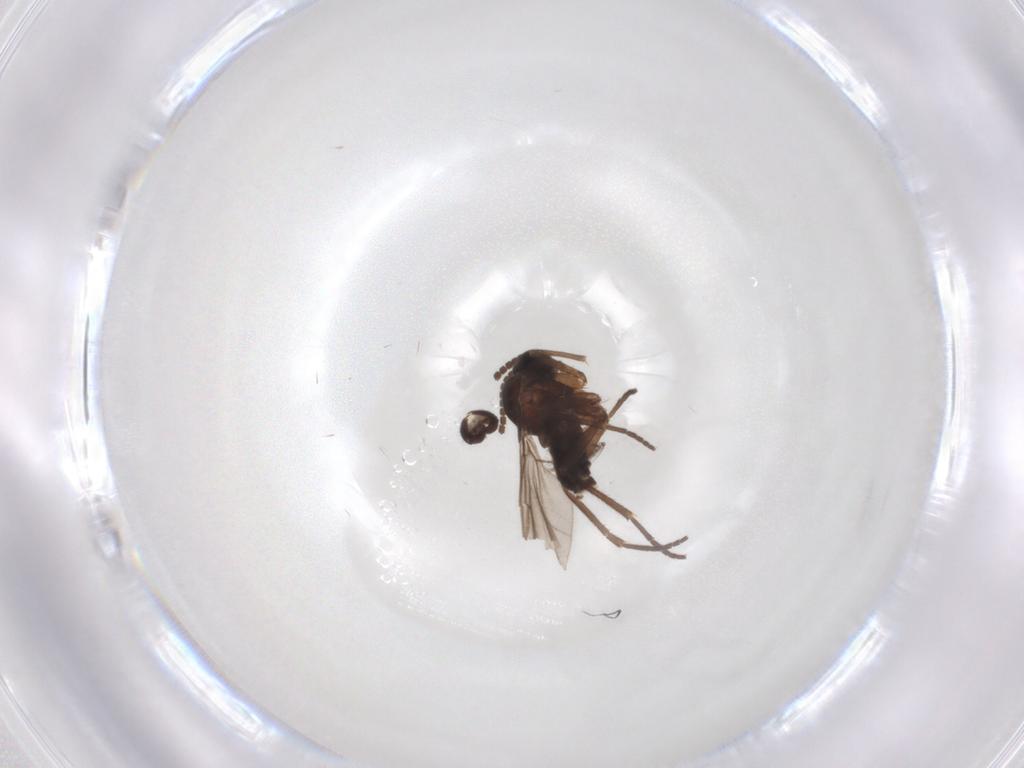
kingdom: Animalia
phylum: Arthropoda
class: Insecta
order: Diptera
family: Sciaridae
